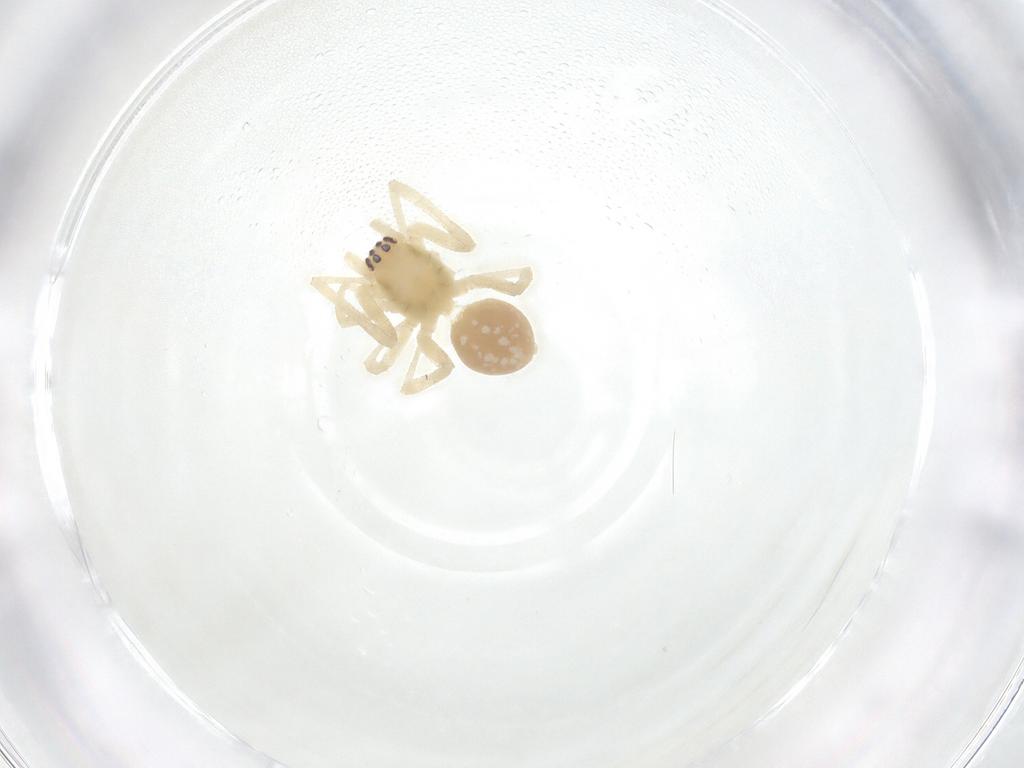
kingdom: Animalia
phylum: Arthropoda
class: Arachnida
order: Araneae
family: Cheiracanthiidae
